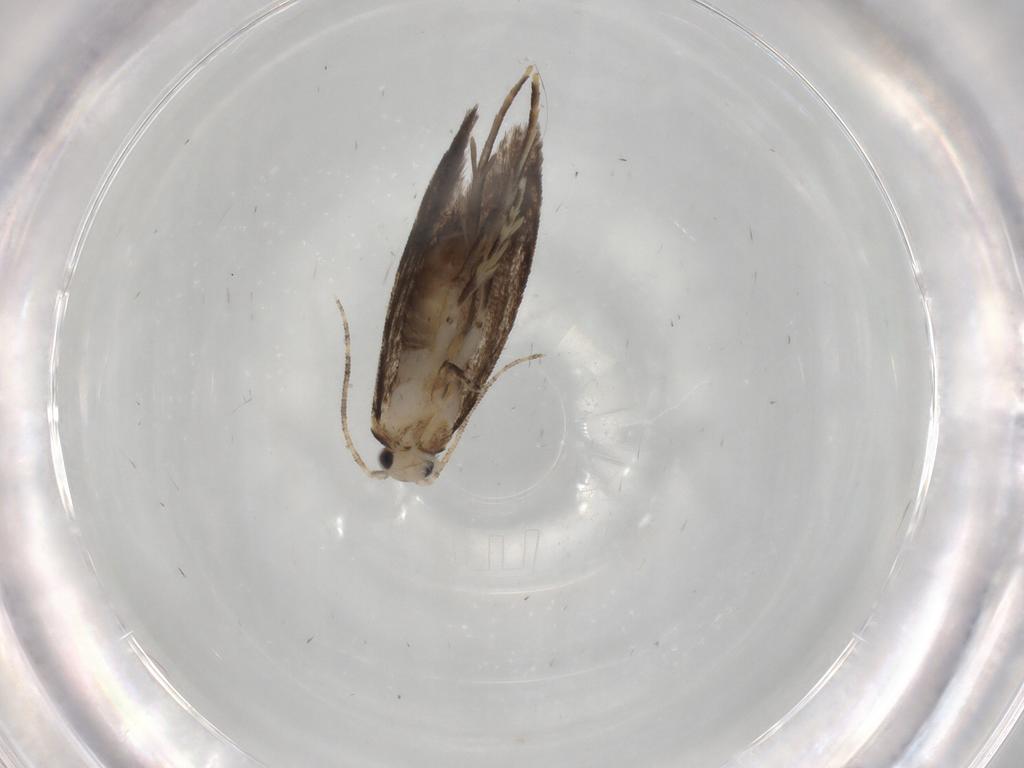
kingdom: Animalia
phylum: Arthropoda
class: Insecta
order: Lepidoptera
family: Tineidae
